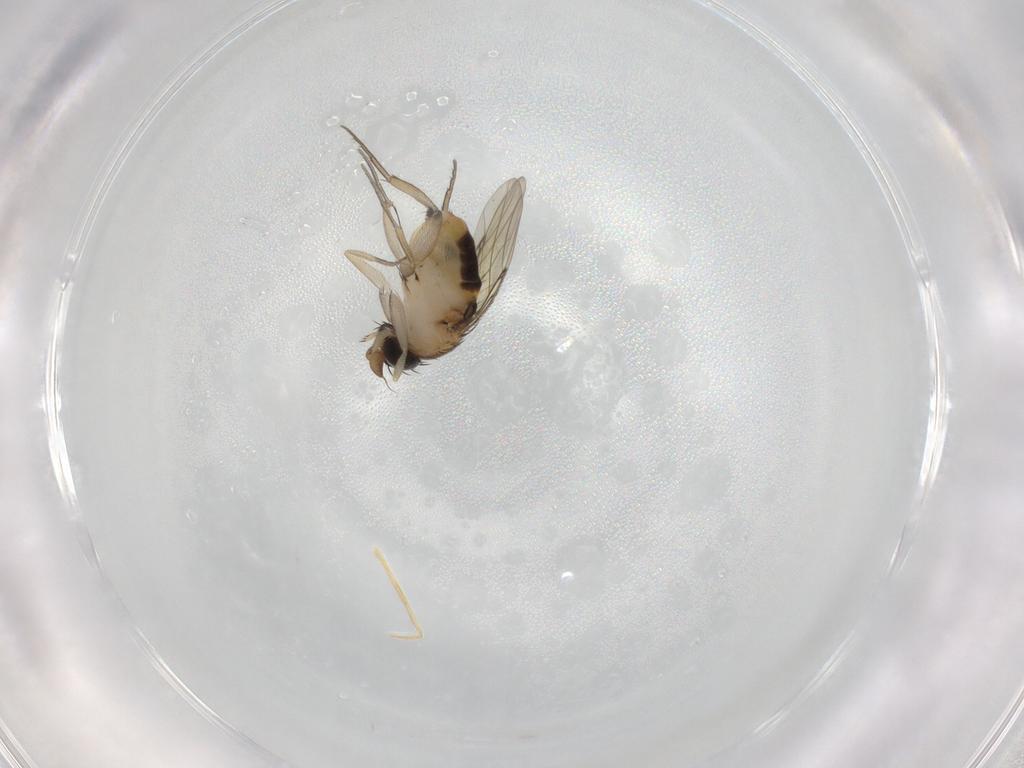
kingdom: Animalia
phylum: Arthropoda
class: Insecta
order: Diptera
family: Phoridae
